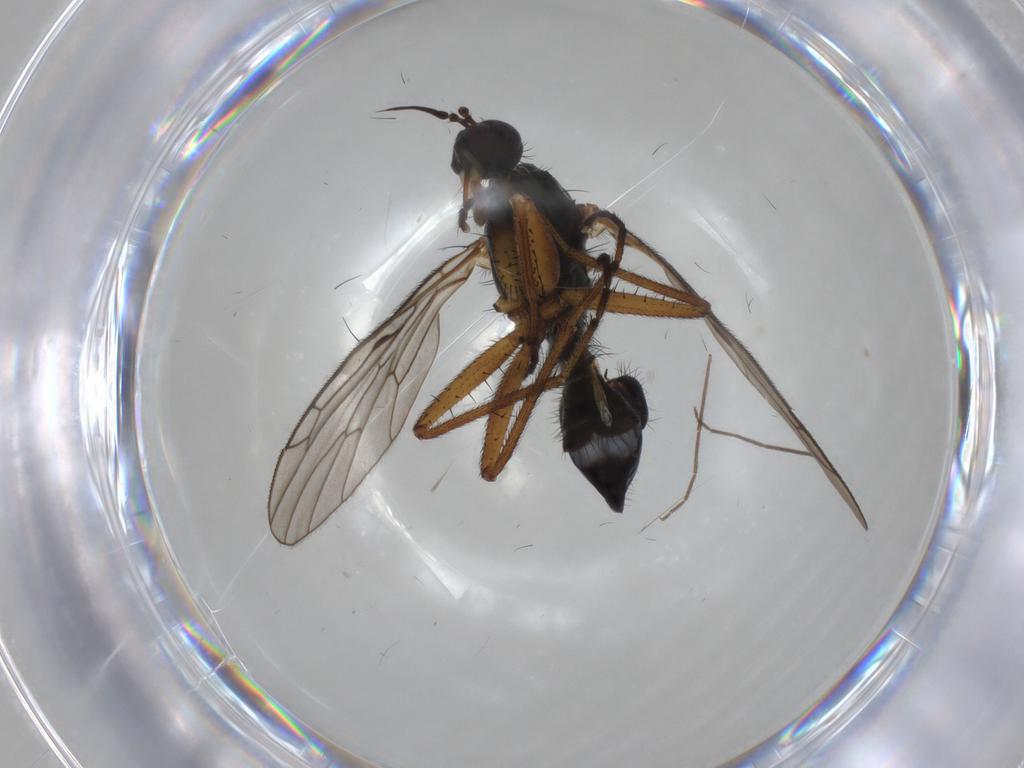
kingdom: Animalia
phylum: Arthropoda
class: Insecta
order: Diptera
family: Empididae
